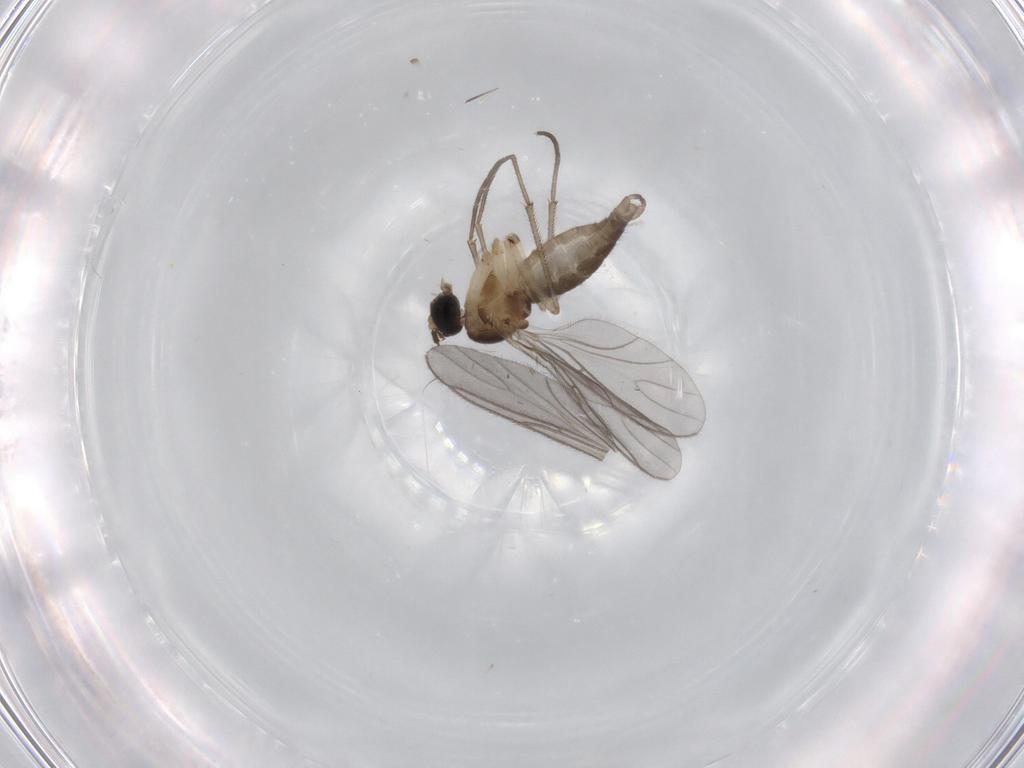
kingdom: Animalia
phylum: Arthropoda
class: Insecta
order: Diptera
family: Sciaridae
